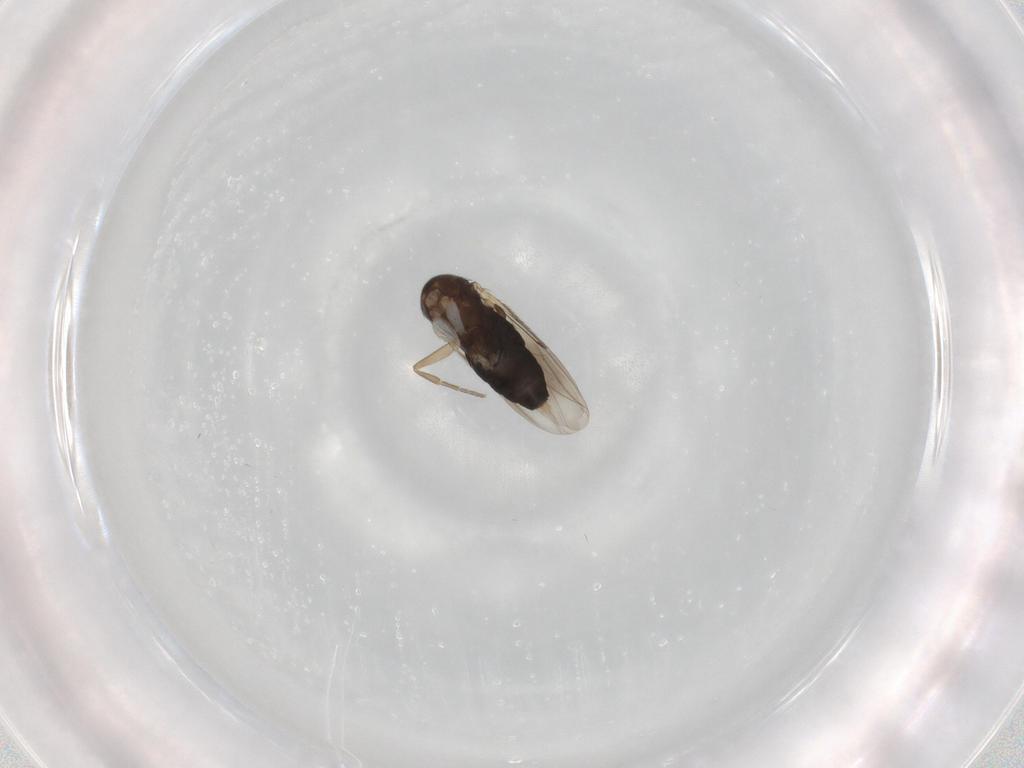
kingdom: Animalia
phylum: Arthropoda
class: Insecta
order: Diptera
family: Phoridae
